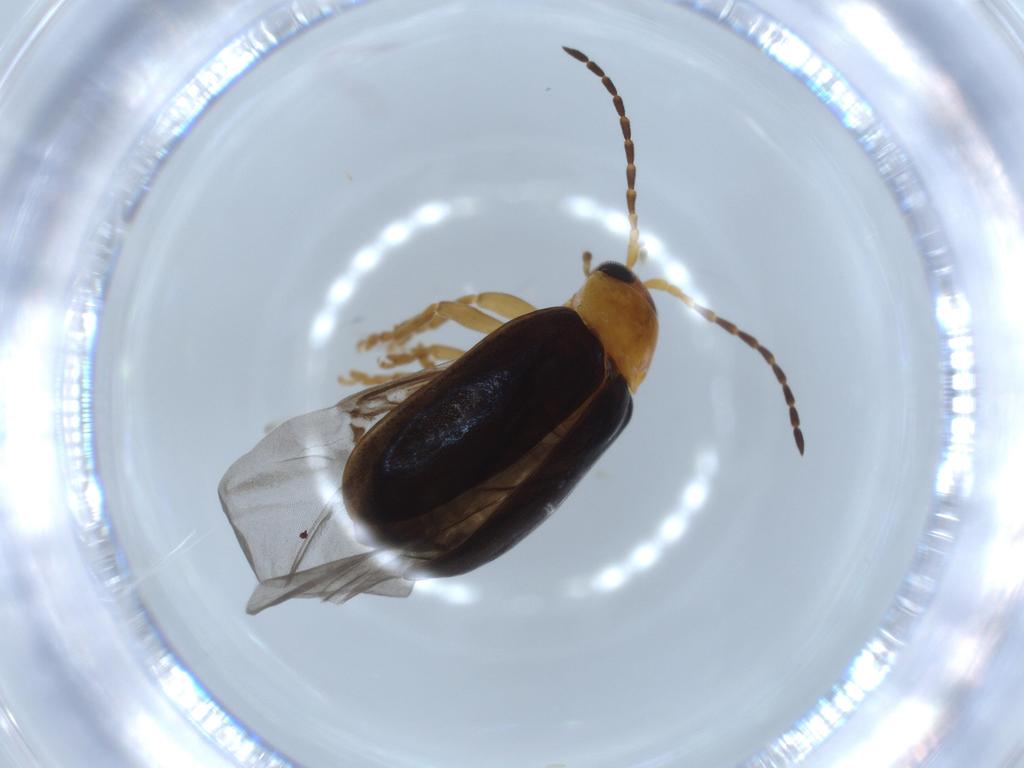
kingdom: Animalia
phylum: Arthropoda
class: Insecta
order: Coleoptera
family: Chrysomelidae
